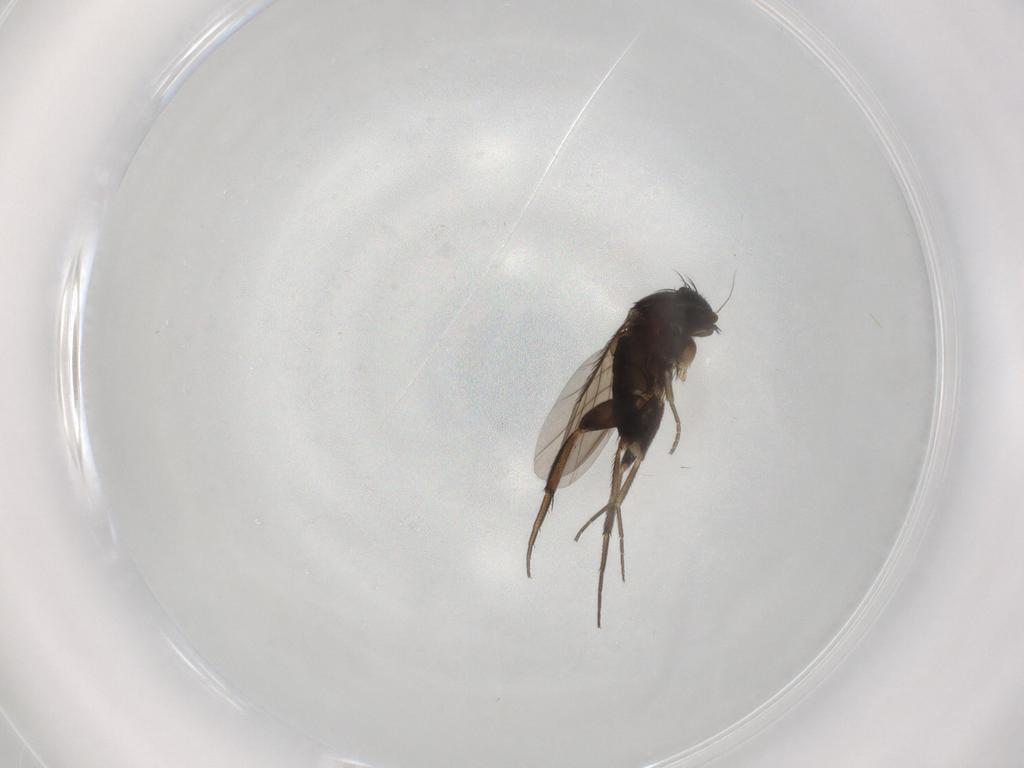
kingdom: Animalia
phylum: Arthropoda
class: Insecta
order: Diptera
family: Phoridae
